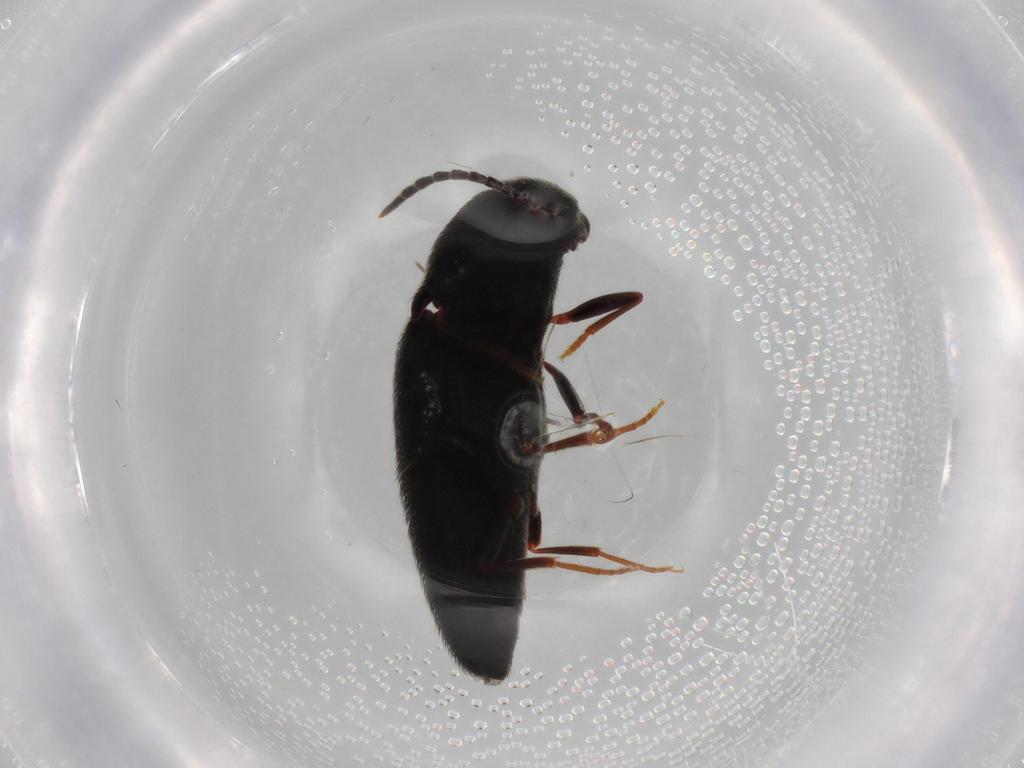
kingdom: Animalia
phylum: Arthropoda
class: Insecta
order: Coleoptera
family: Eucnemidae
